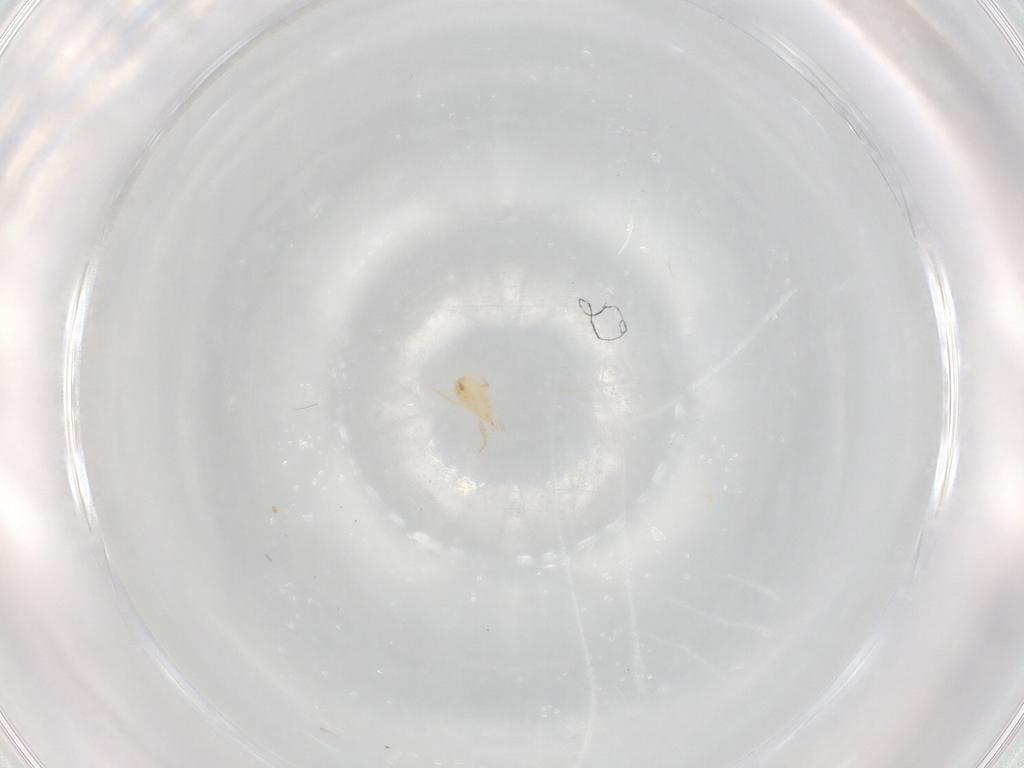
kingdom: Animalia
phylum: Arthropoda
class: Arachnida
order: Mesostigmata
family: Phytoseiidae
